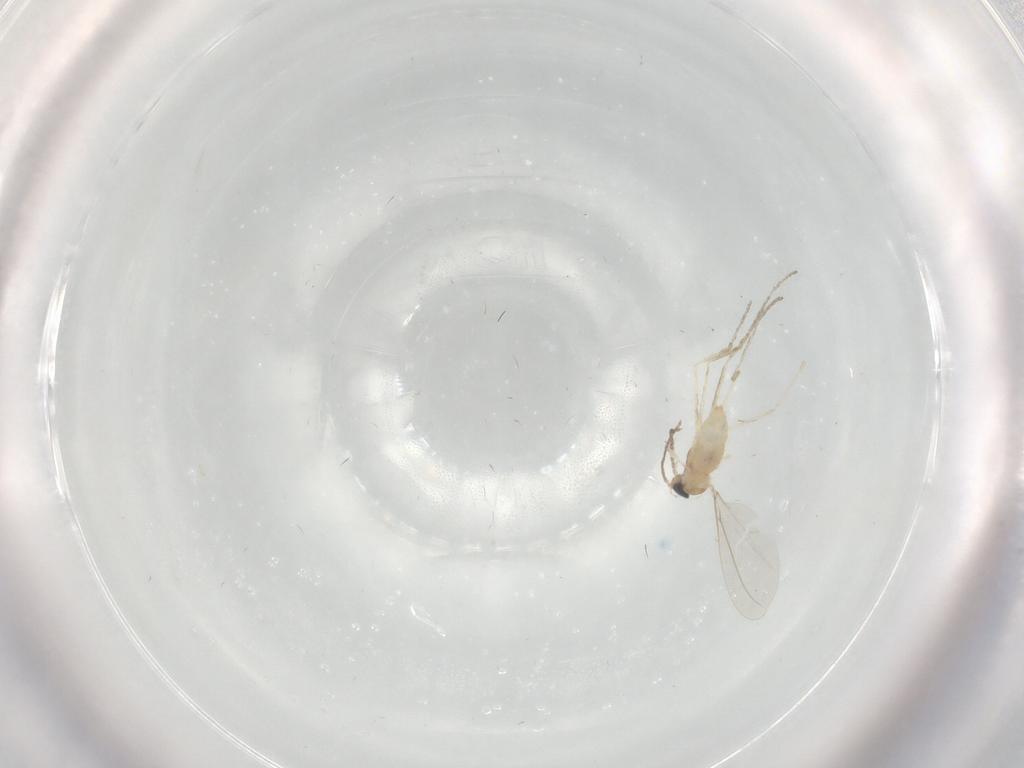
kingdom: Animalia
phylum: Arthropoda
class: Insecta
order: Diptera
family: Cecidomyiidae
